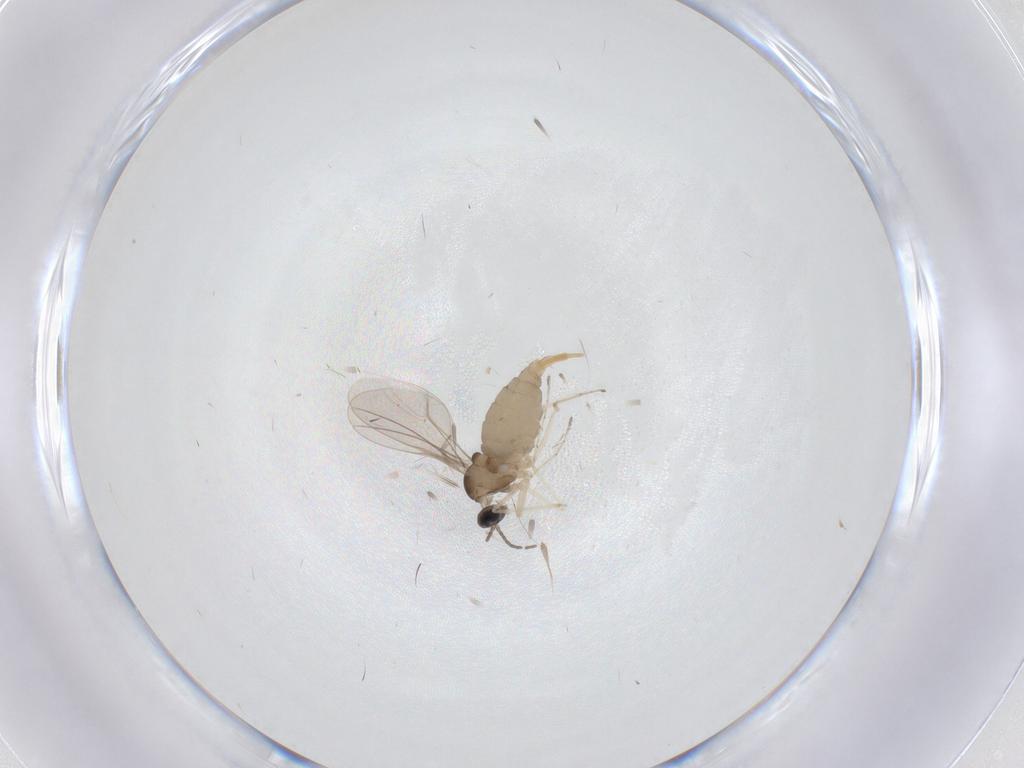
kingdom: Animalia
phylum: Arthropoda
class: Insecta
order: Diptera
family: Cecidomyiidae
